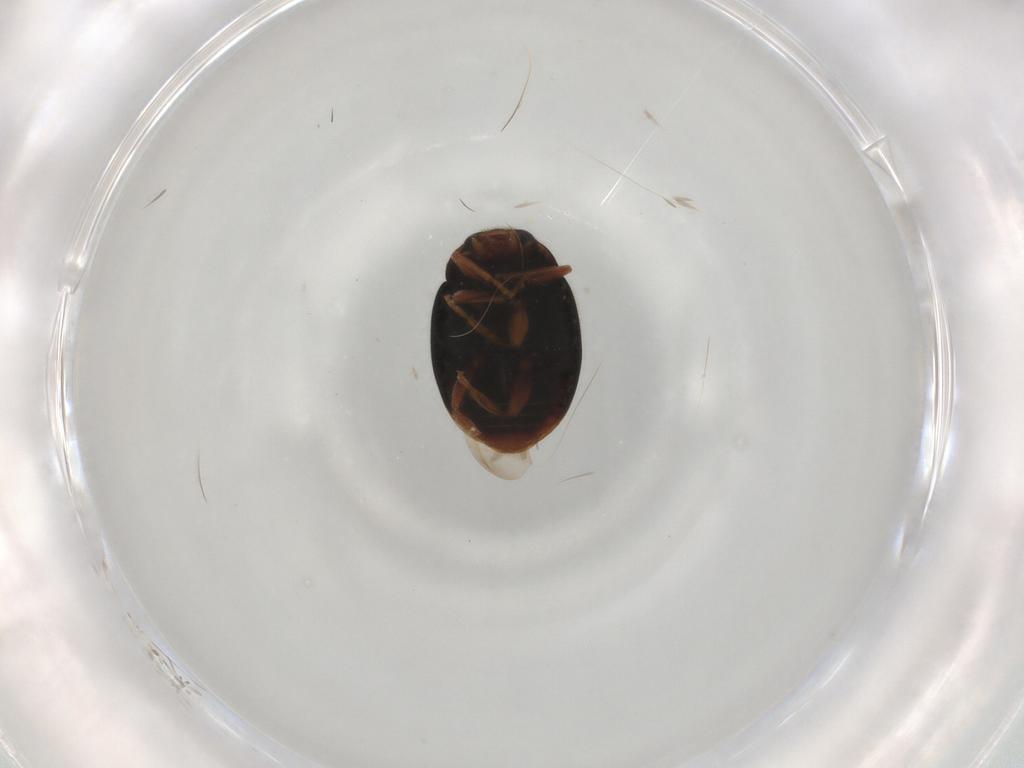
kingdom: Animalia
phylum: Arthropoda
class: Insecta
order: Coleoptera
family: Coccinellidae
